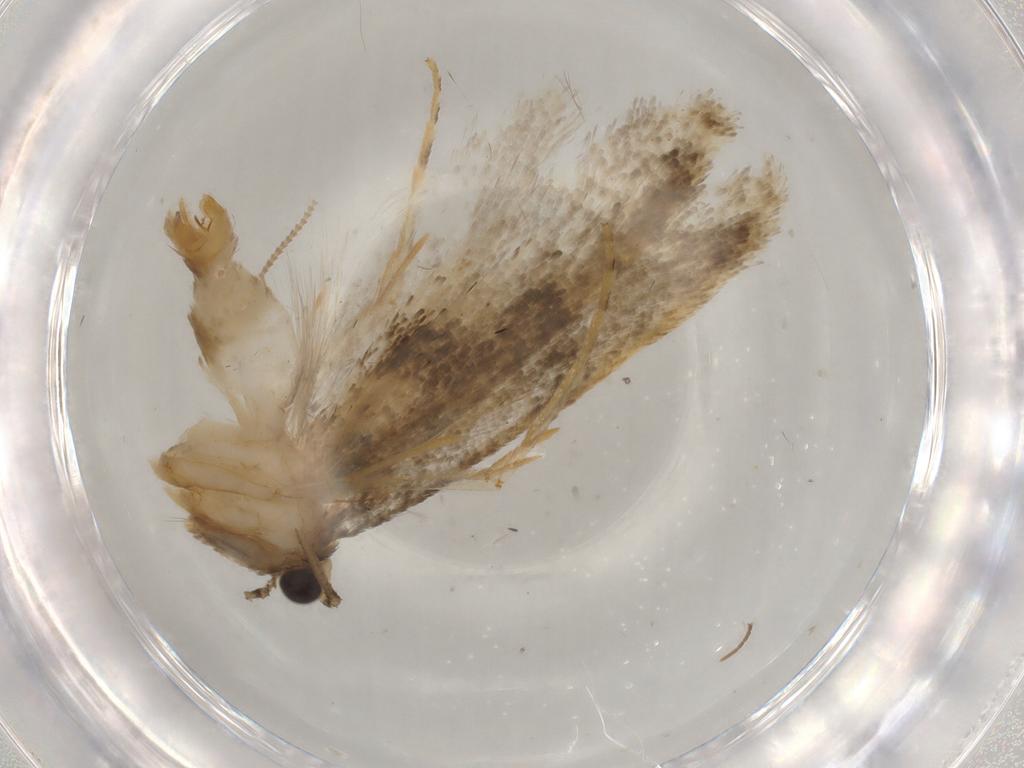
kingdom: Animalia
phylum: Arthropoda
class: Insecta
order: Lepidoptera
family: Tineidae
